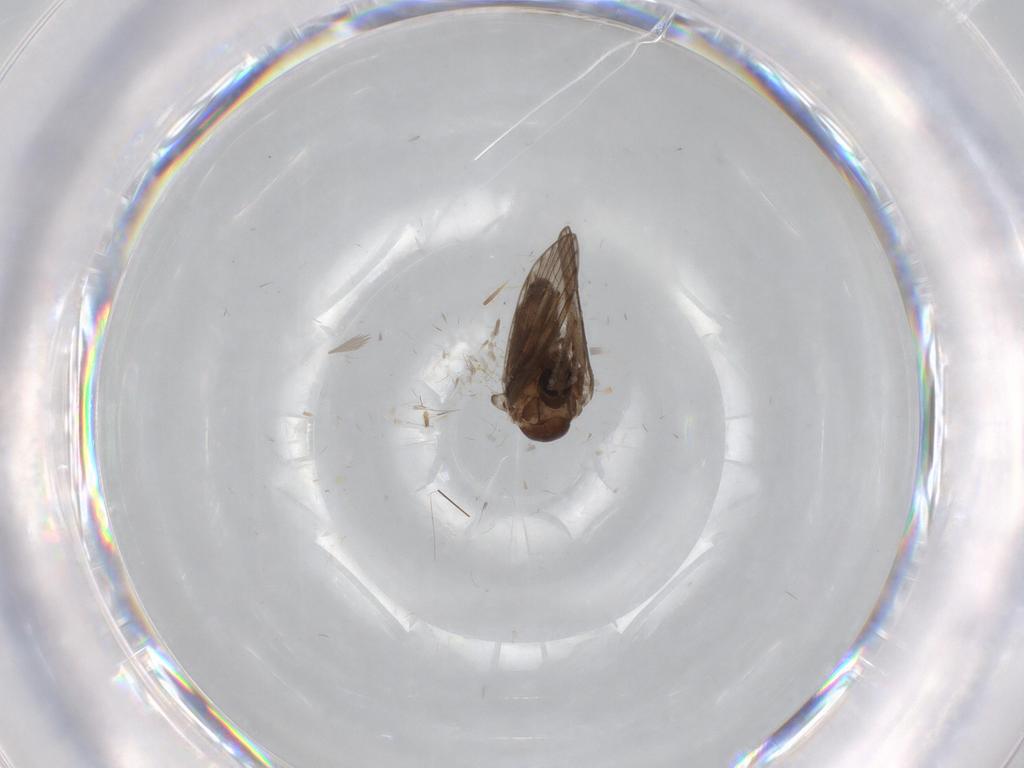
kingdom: Animalia
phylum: Arthropoda
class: Insecta
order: Diptera
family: Psychodidae
